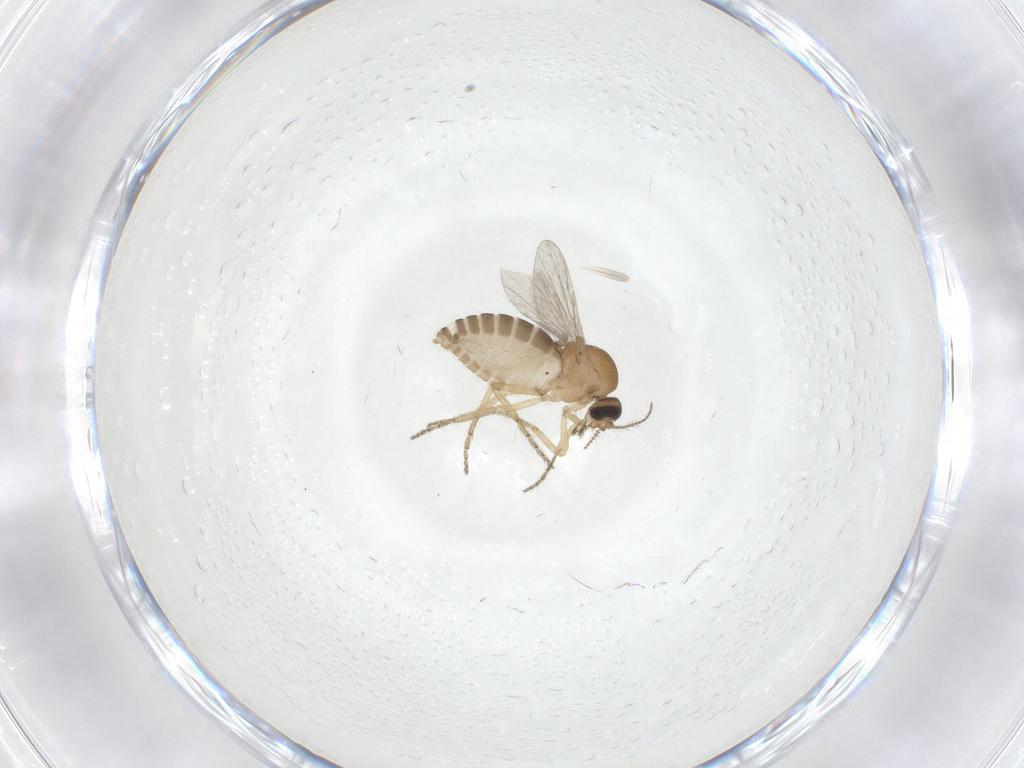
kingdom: Animalia
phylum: Arthropoda
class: Insecta
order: Diptera
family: Ceratopogonidae
